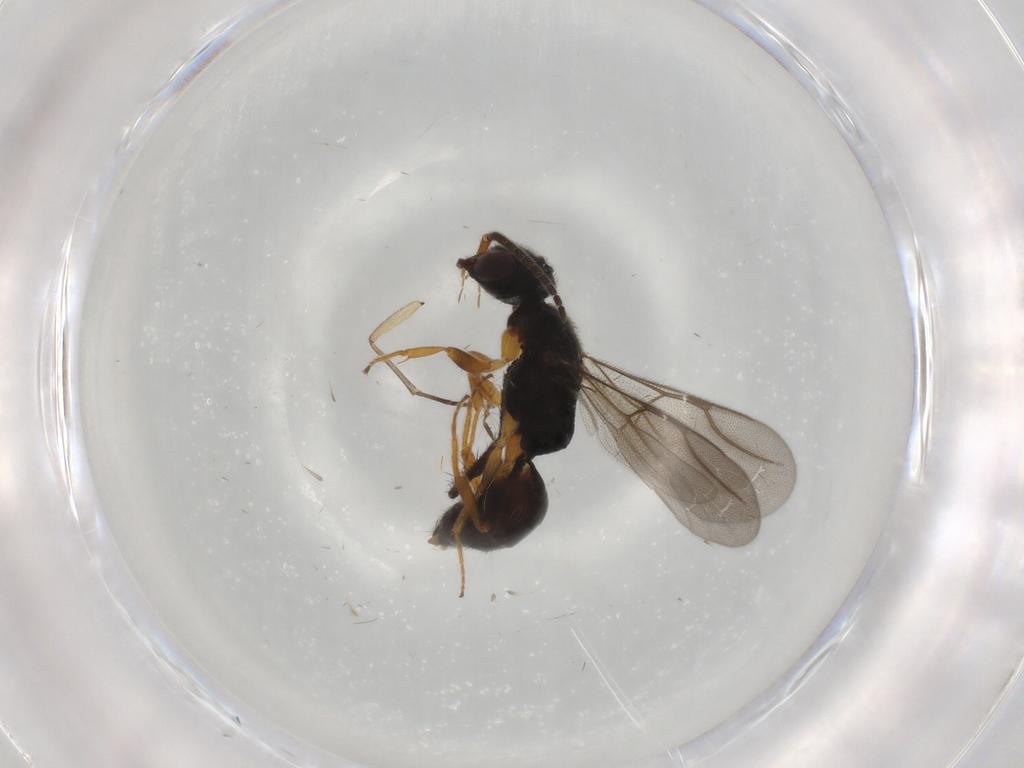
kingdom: Animalia
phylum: Arthropoda
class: Insecta
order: Hymenoptera
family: Bethylidae
